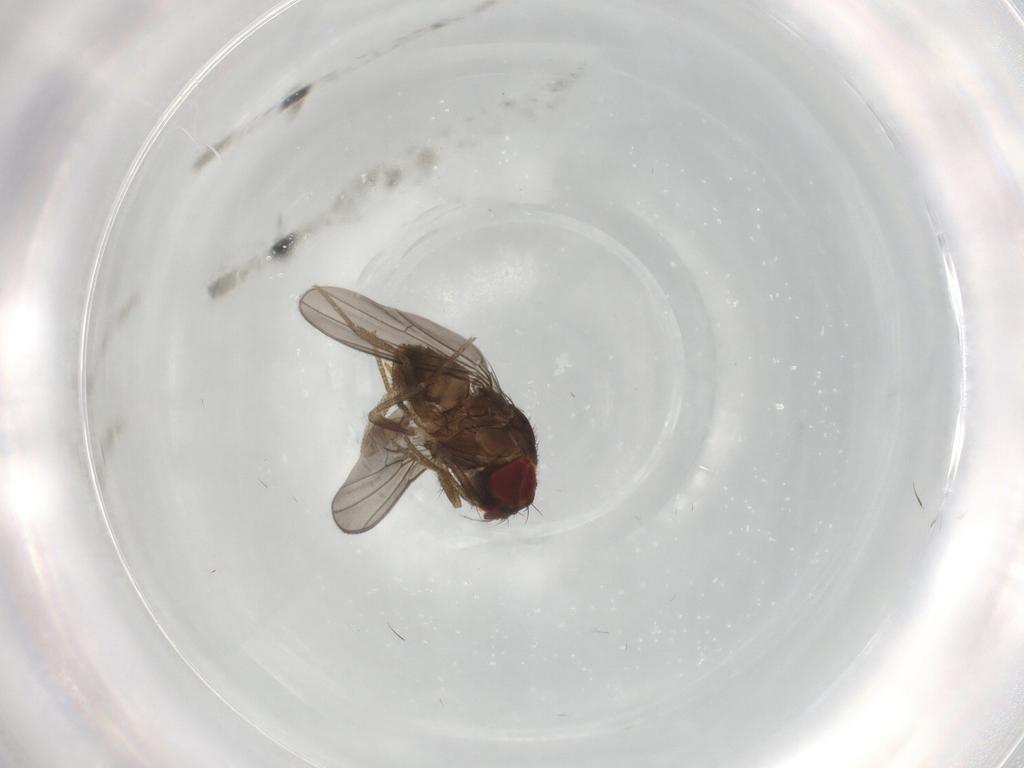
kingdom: Animalia
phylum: Arthropoda
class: Insecta
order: Diptera
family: Drosophilidae
